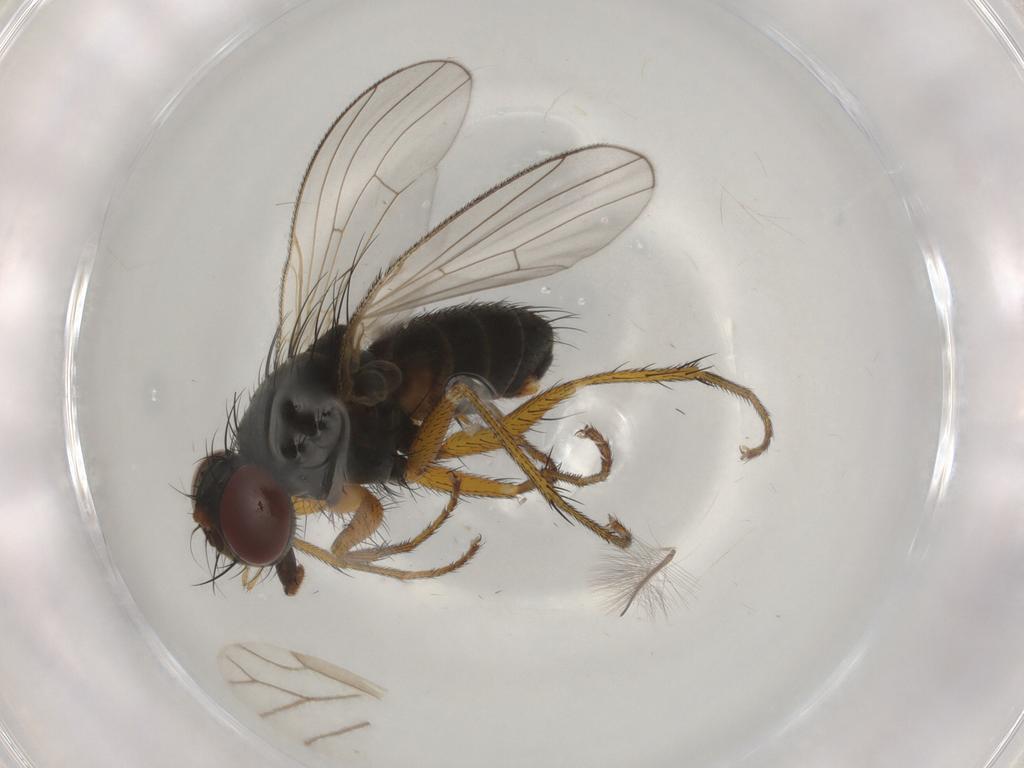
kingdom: Animalia
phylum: Arthropoda
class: Insecta
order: Diptera
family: Muscidae
